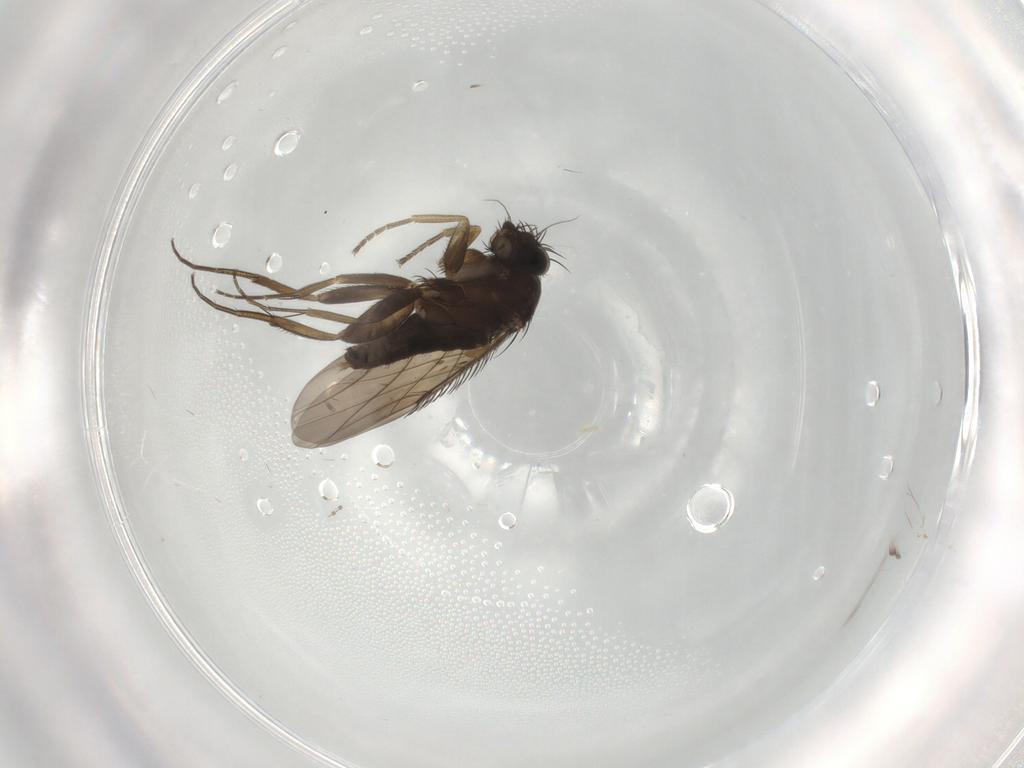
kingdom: Animalia
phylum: Arthropoda
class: Insecta
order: Diptera
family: Phoridae
